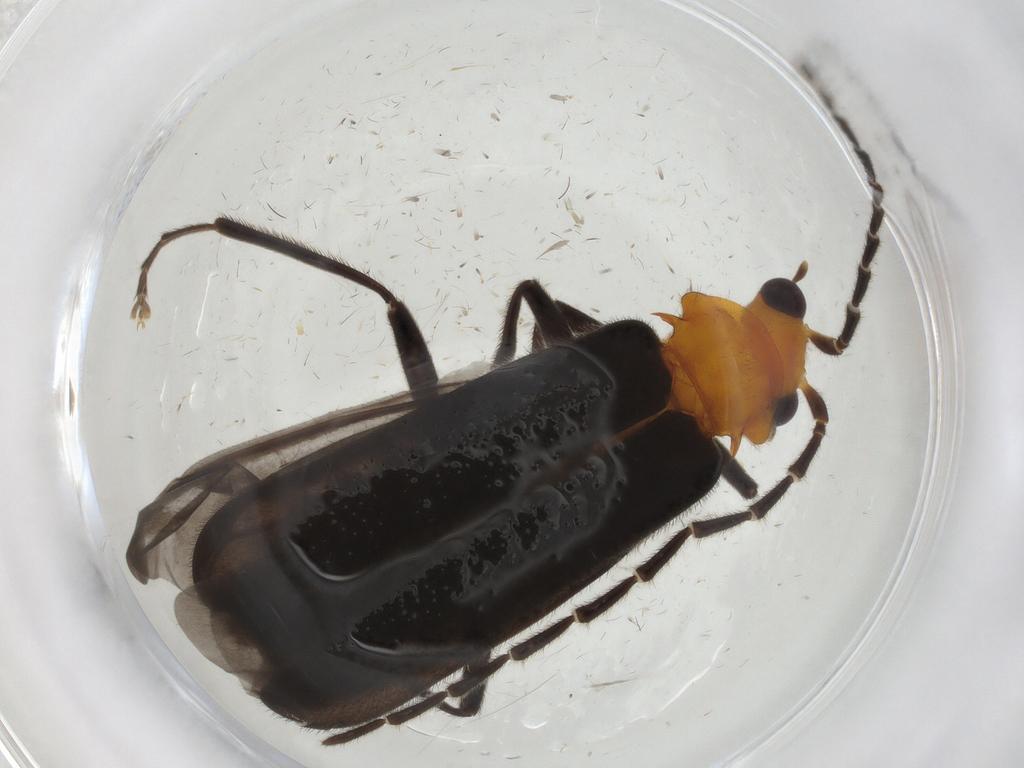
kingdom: Animalia
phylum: Arthropoda
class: Insecta
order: Coleoptera
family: Cantharidae
